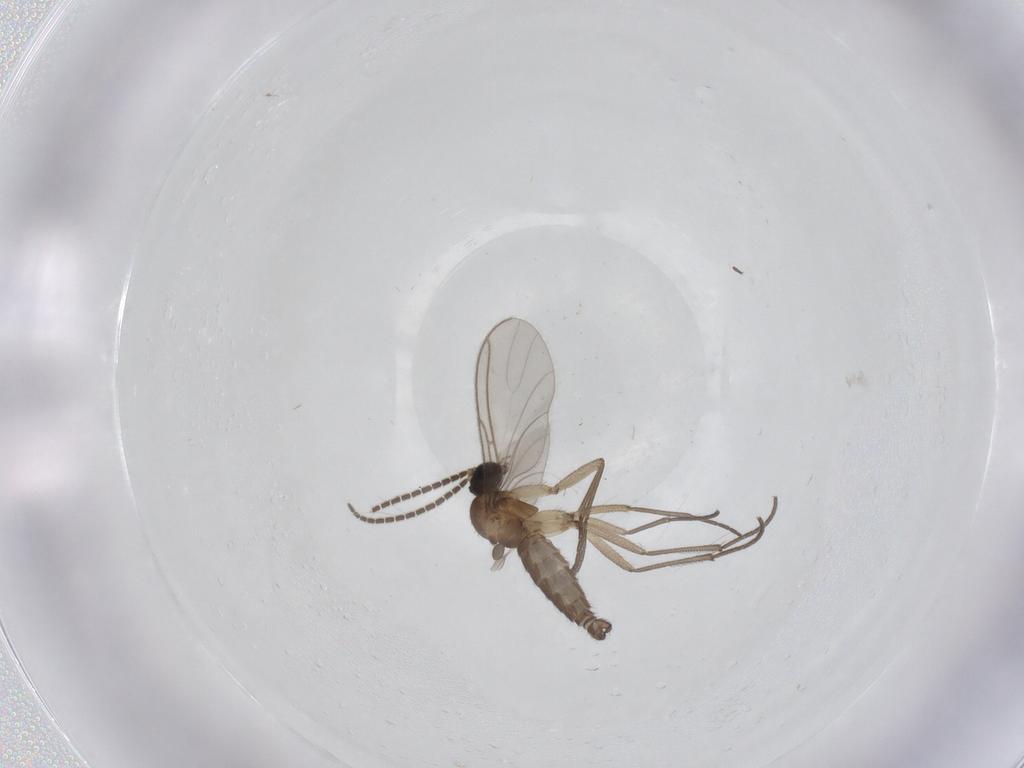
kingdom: Animalia
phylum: Arthropoda
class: Insecta
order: Diptera
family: Sciaridae
